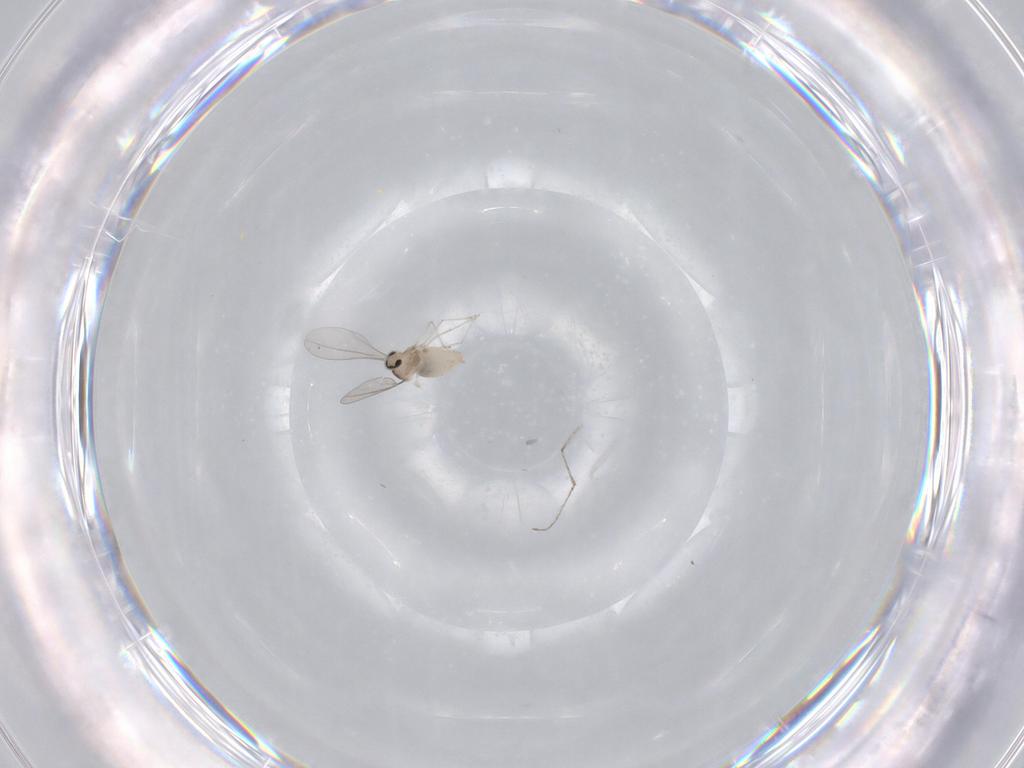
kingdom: Animalia
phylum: Arthropoda
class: Insecta
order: Diptera
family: Cecidomyiidae
